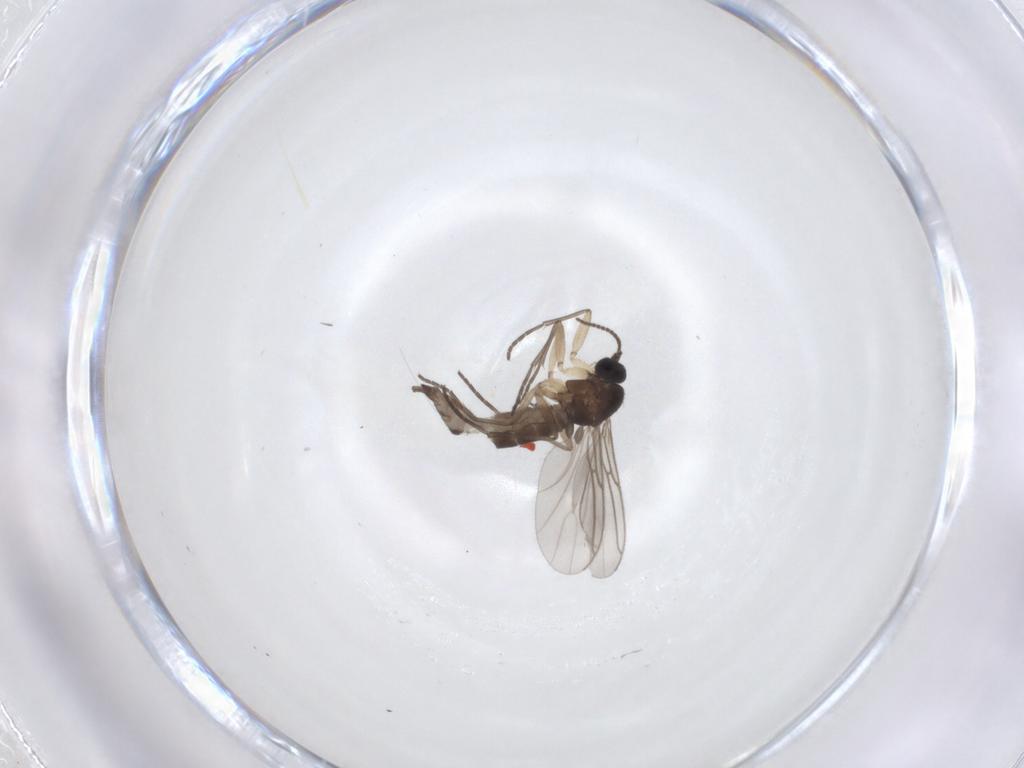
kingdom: Animalia
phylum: Arthropoda
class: Insecta
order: Diptera
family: Sciaridae
